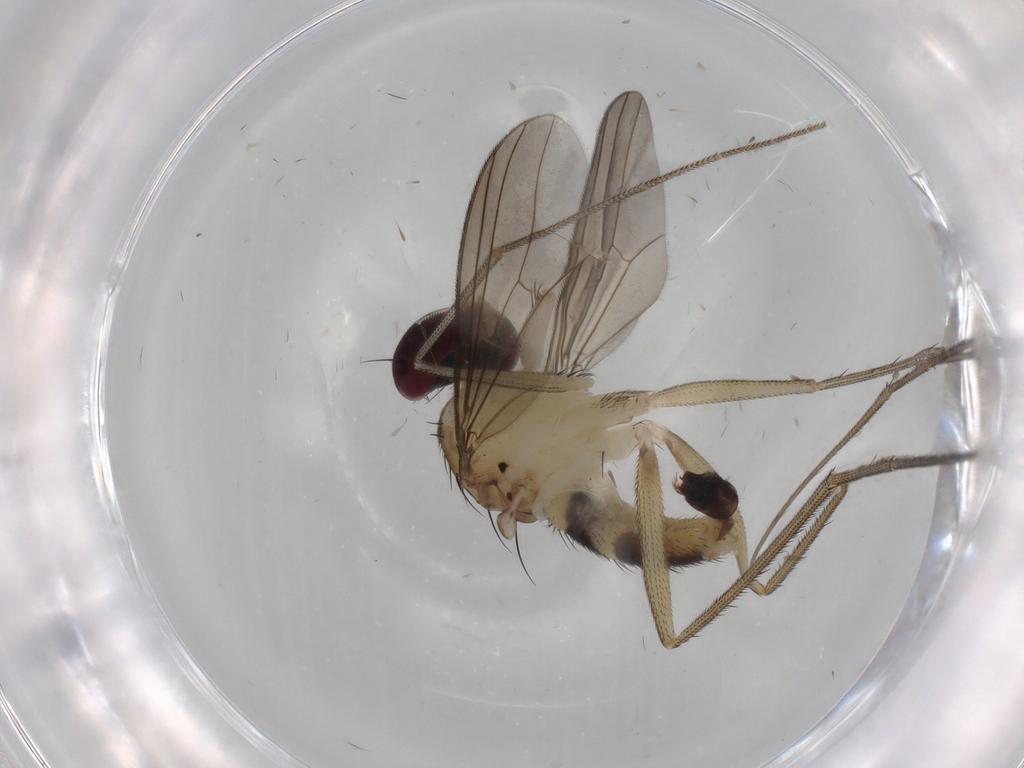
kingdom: Animalia
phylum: Arthropoda
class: Insecta
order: Diptera
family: Dolichopodidae
